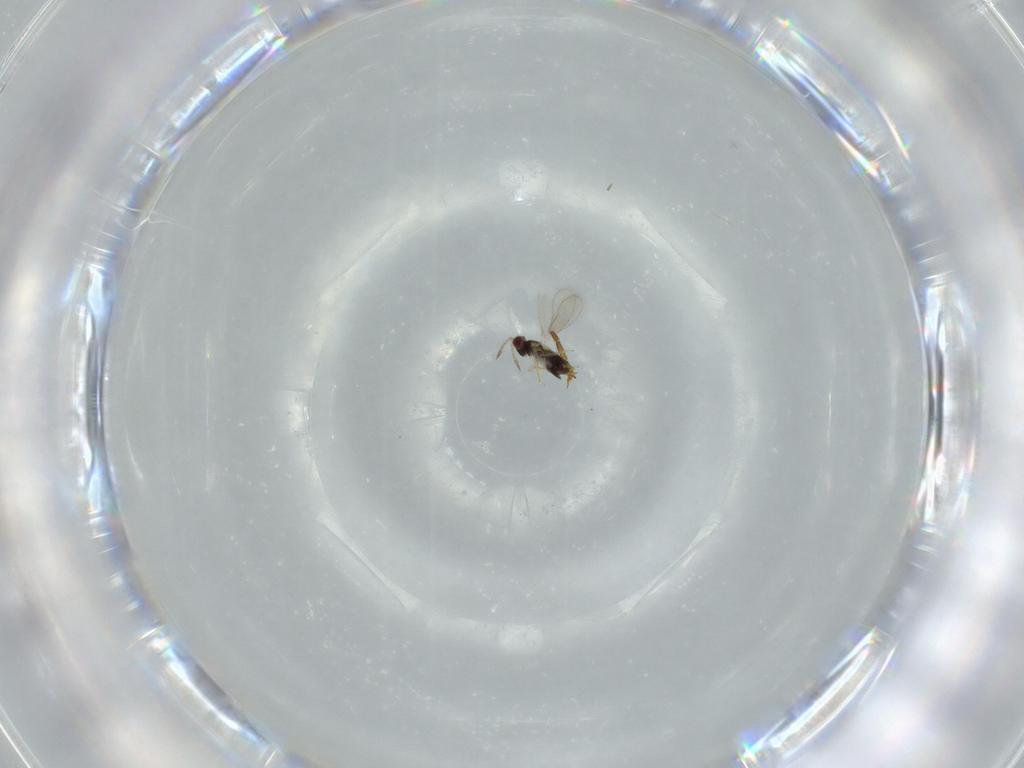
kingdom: Animalia
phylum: Arthropoda
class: Insecta
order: Hymenoptera
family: Formicidae
